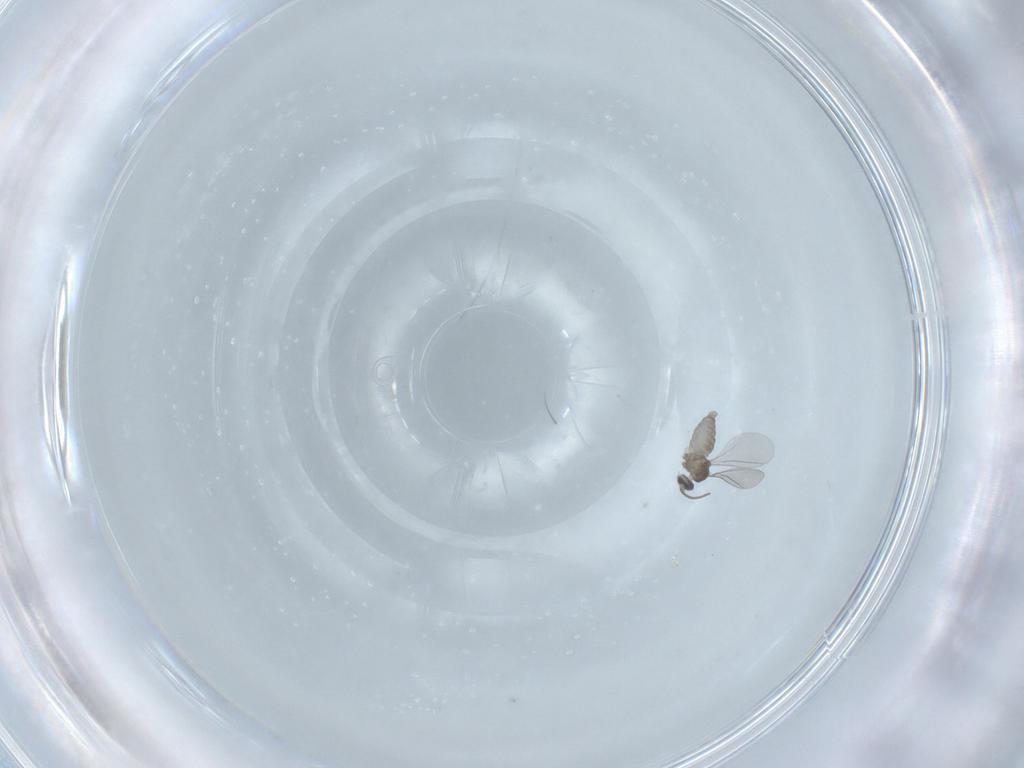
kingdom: Animalia
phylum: Arthropoda
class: Insecta
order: Diptera
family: Cecidomyiidae
